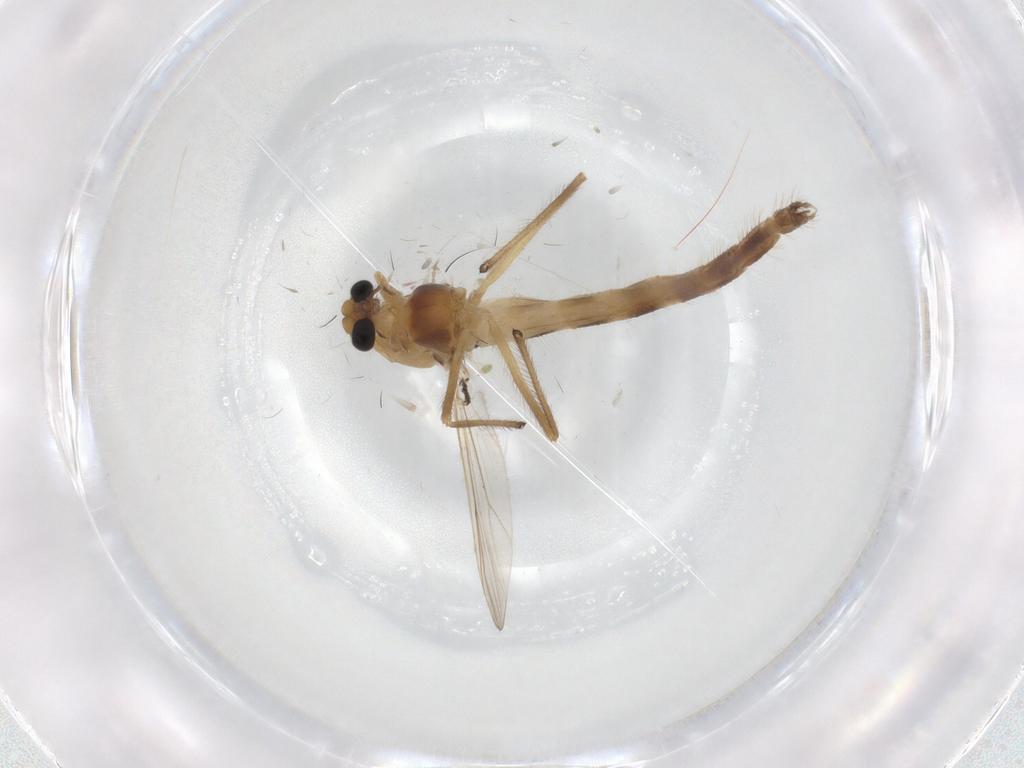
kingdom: Animalia
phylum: Arthropoda
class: Insecta
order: Diptera
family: Phoridae
